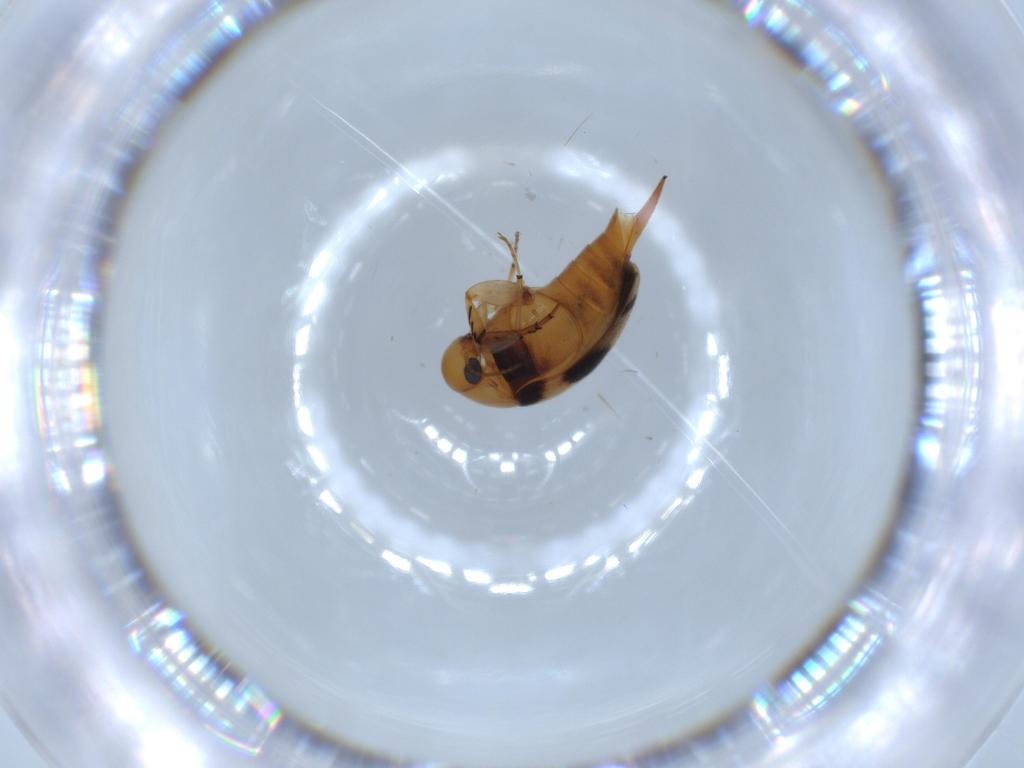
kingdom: Animalia
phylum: Arthropoda
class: Insecta
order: Coleoptera
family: Mordellidae
